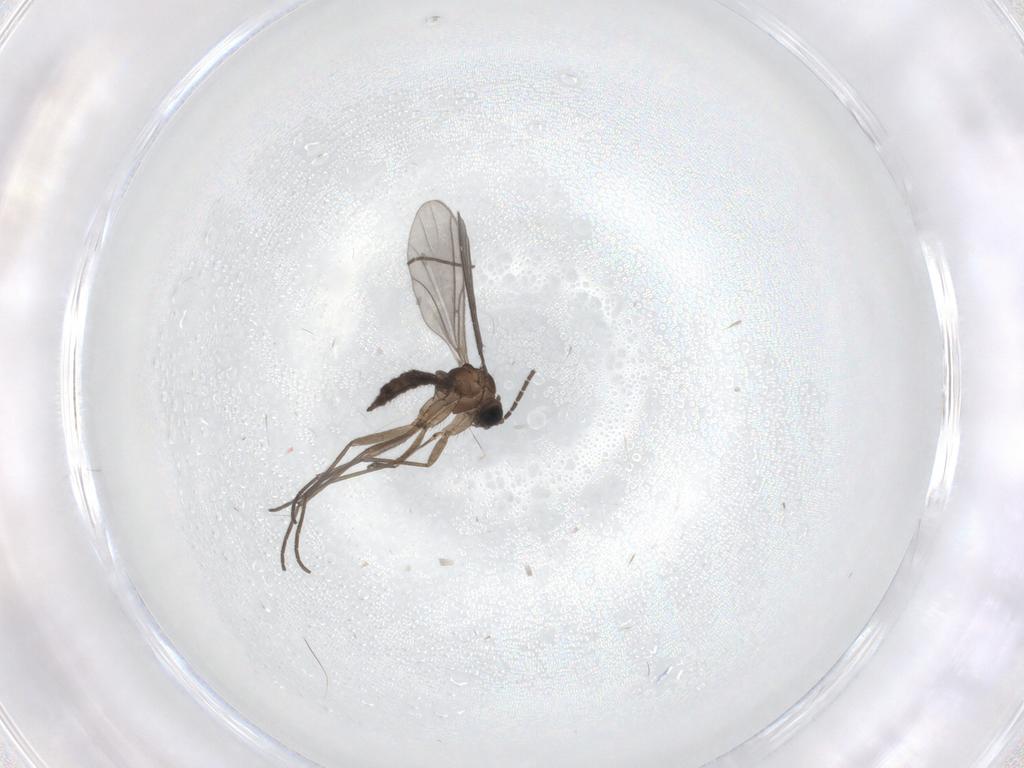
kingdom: Animalia
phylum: Arthropoda
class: Insecta
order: Diptera
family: Sciaridae
